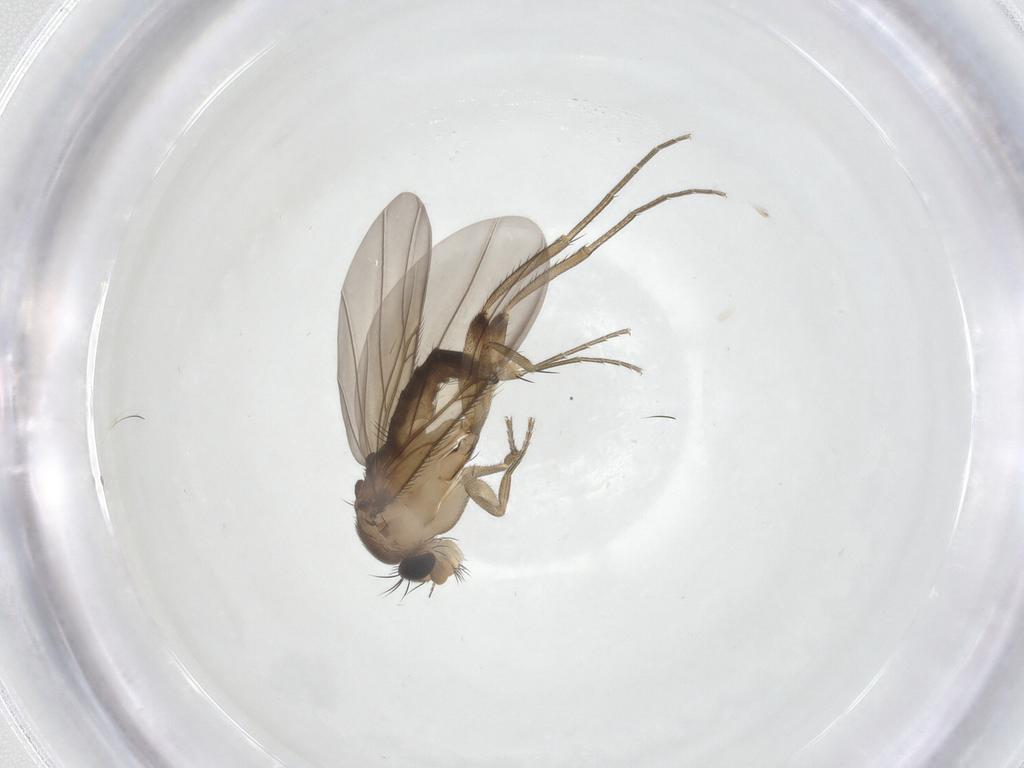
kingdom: Animalia
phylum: Arthropoda
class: Insecta
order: Diptera
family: Phoridae
